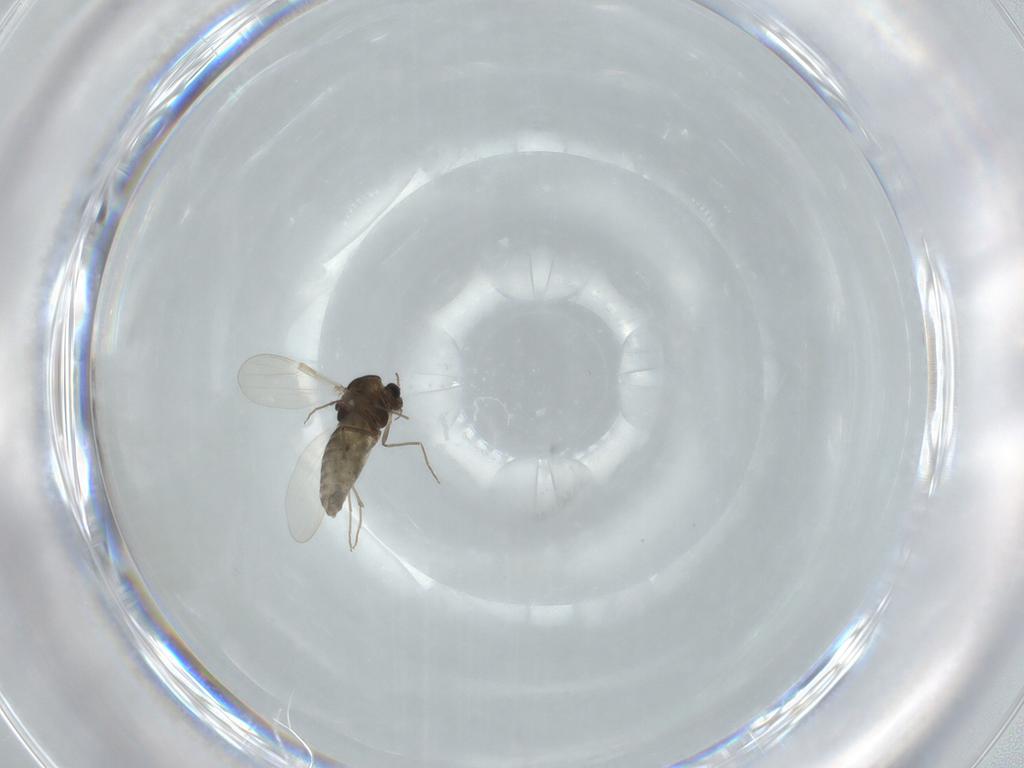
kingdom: Animalia
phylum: Arthropoda
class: Insecta
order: Diptera
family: Chironomidae
